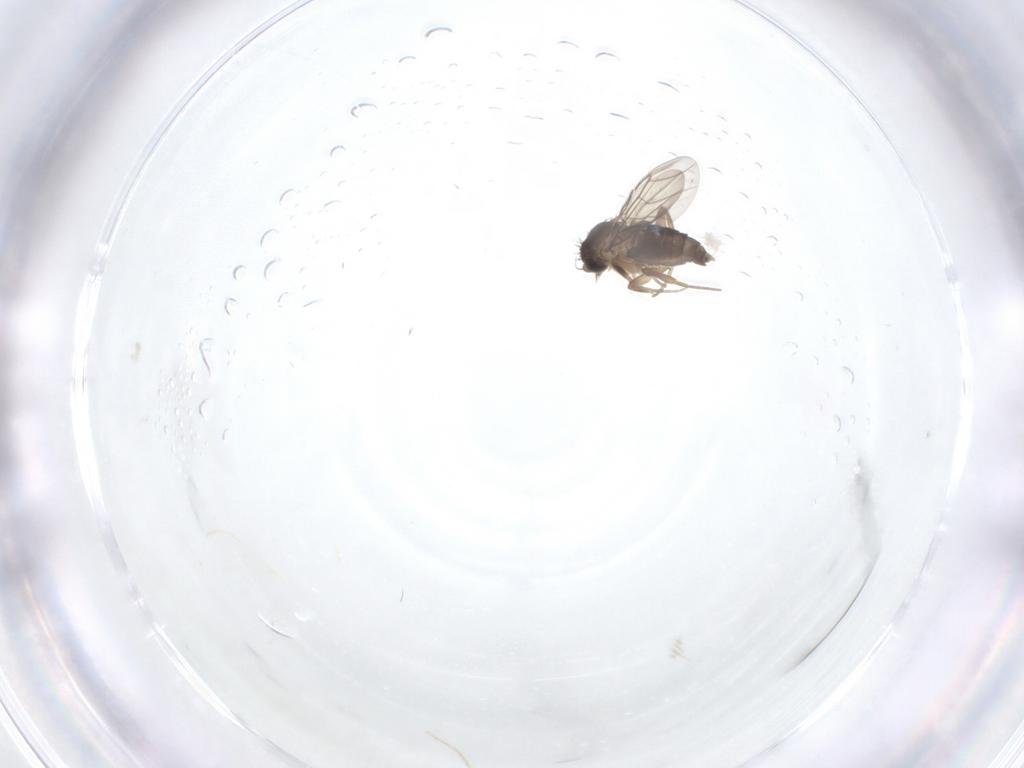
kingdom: Animalia
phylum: Arthropoda
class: Insecta
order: Diptera
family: Phoridae
